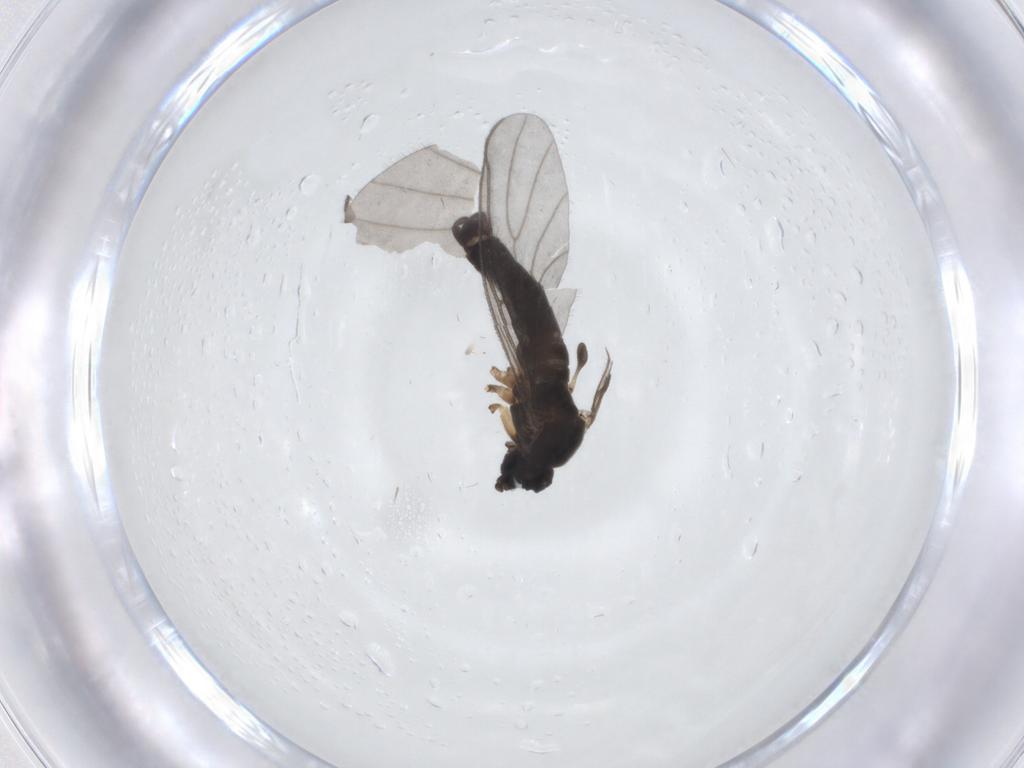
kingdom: Animalia
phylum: Arthropoda
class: Insecta
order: Diptera
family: Sciaridae
